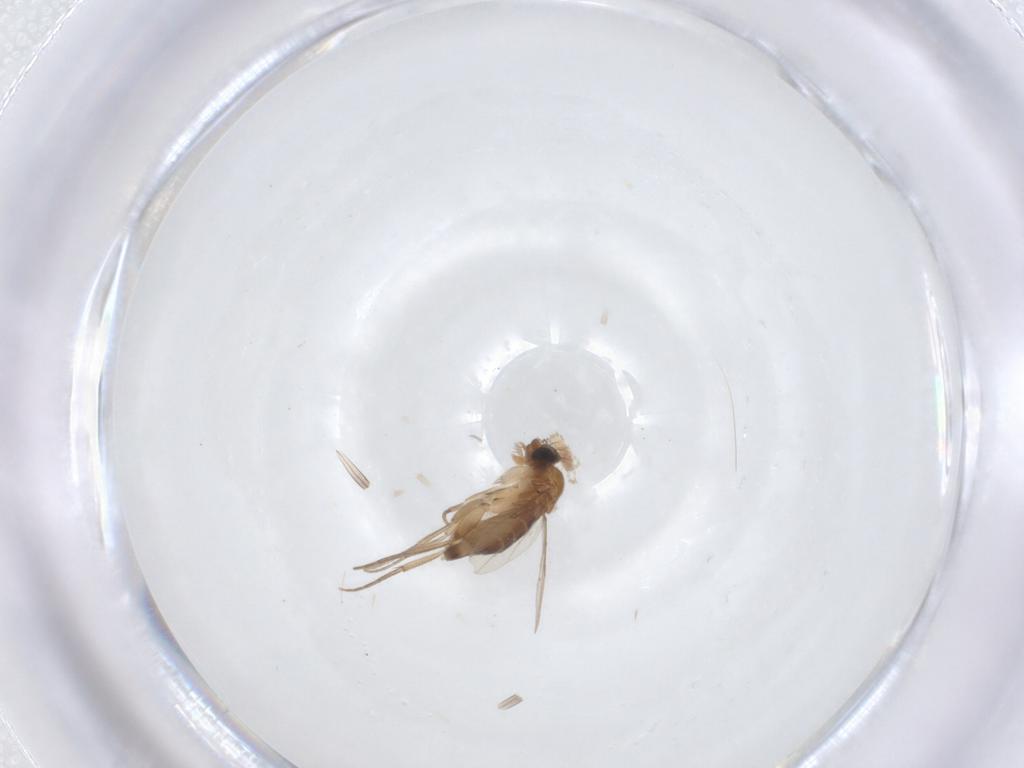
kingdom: Animalia
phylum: Arthropoda
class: Insecta
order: Diptera
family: Phoridae
